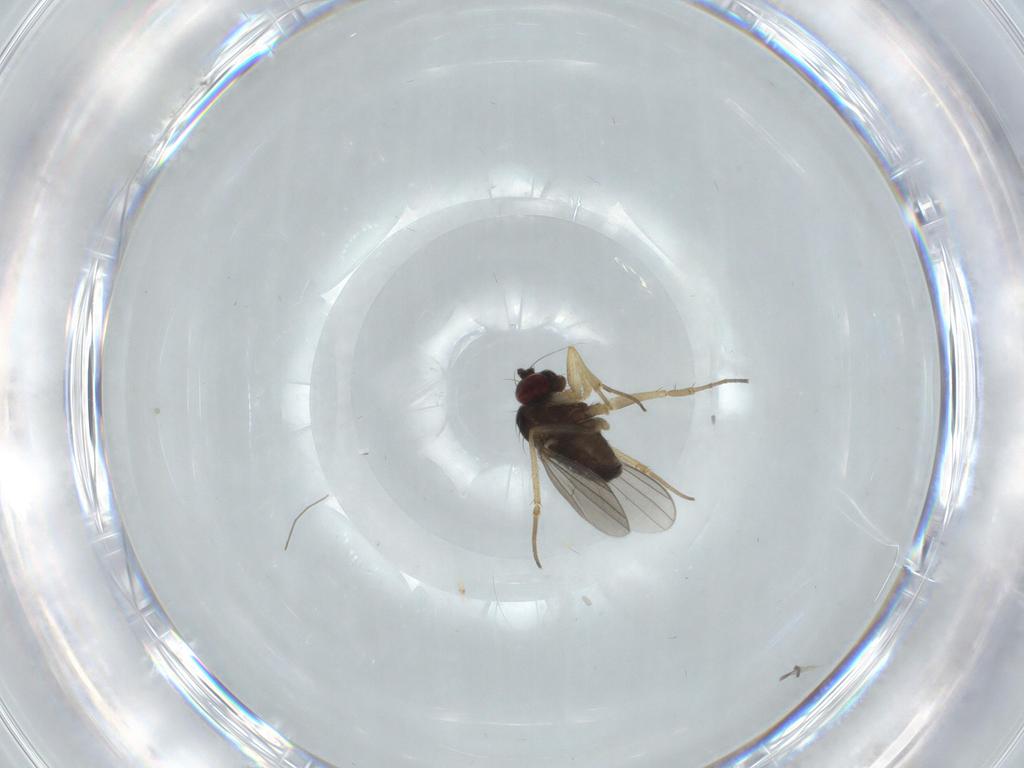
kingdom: Animalia
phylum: Arthropoda
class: Insecta
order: Diptera
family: Dolichopodidae
